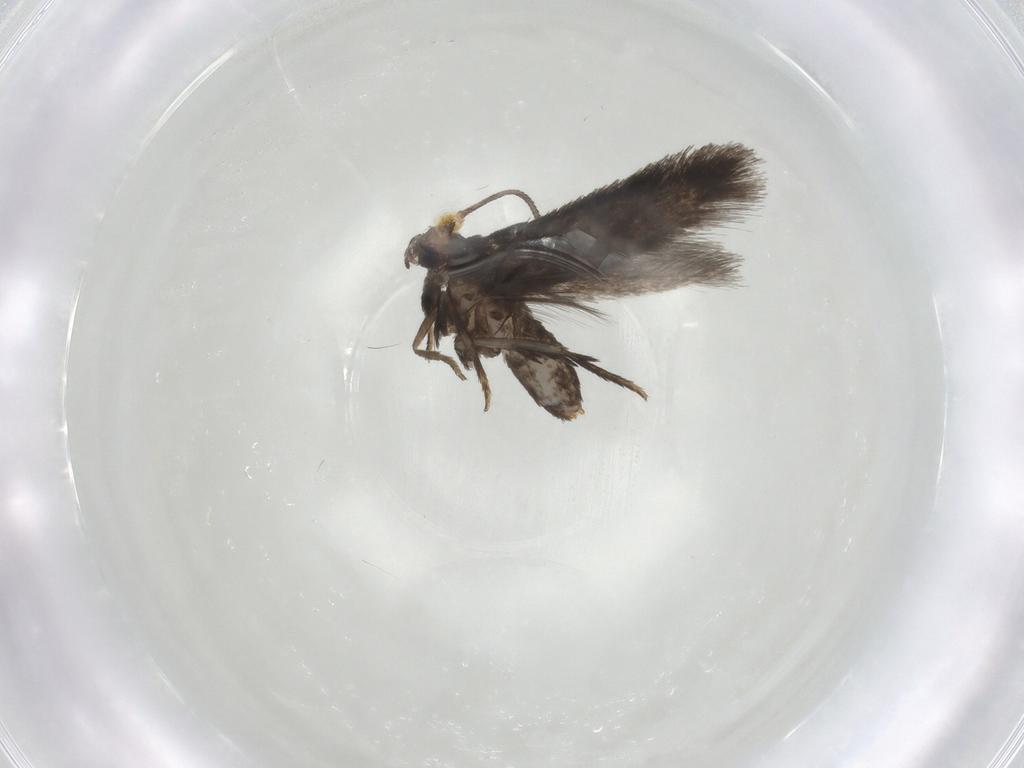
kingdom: Animalia
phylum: Arthropoda
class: Insecta
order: Lepidoptera
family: Nepticulidae
